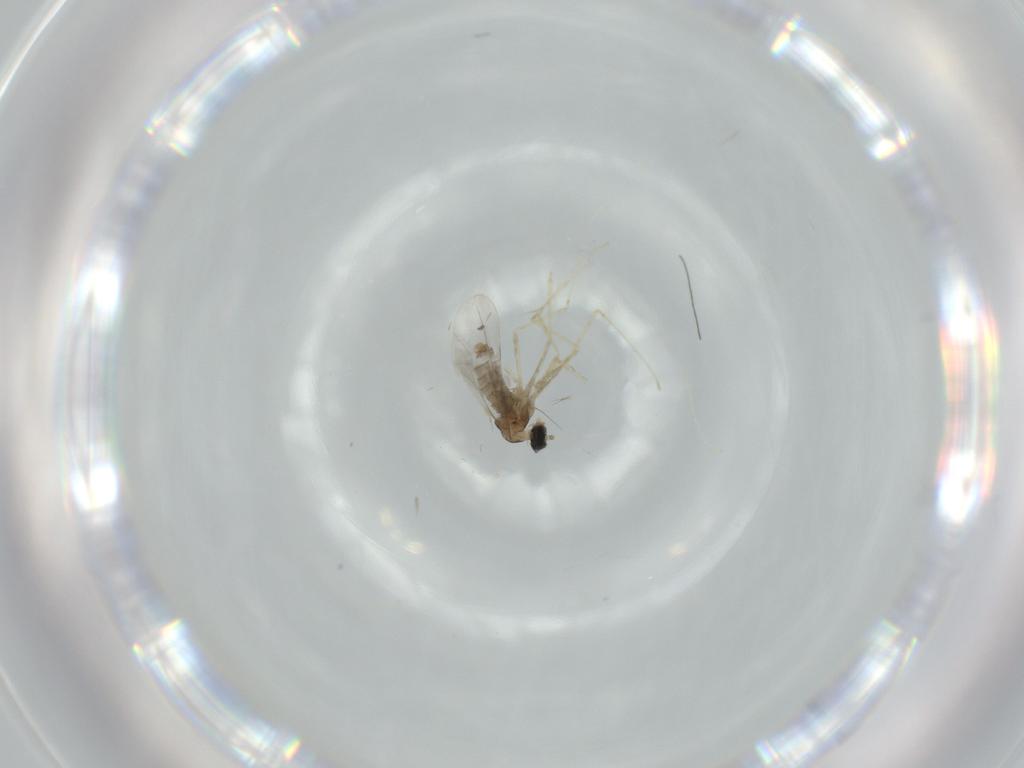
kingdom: Animalia
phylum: Arthropoda
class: Insecta
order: Diptera
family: Cecidomyiidae
